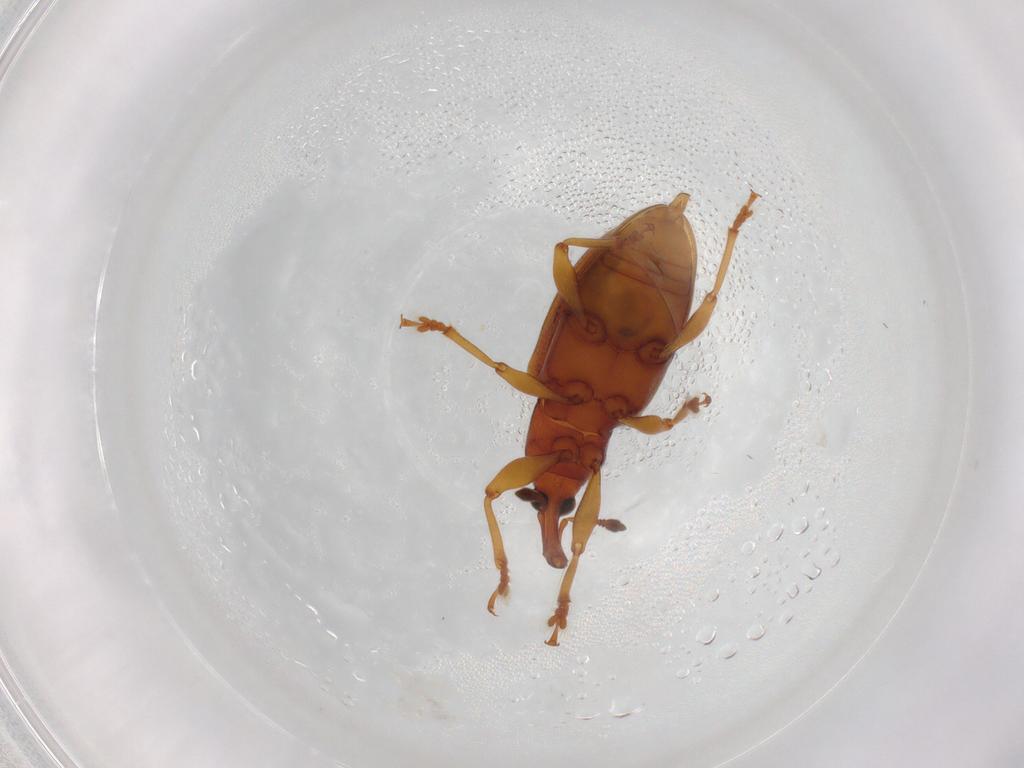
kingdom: Animalia
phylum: Arthropoda
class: Insecta
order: Coleoptera
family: Curculionidae
